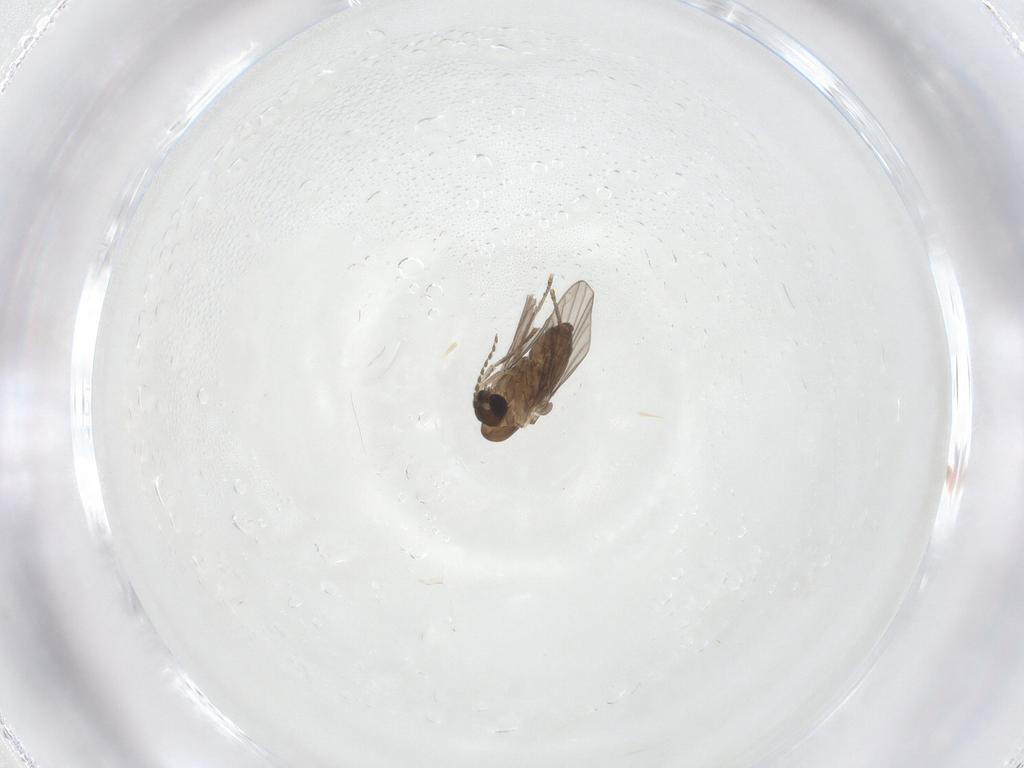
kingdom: Animalia
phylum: Arthropoda
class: Insecta
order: Diptera
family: Psychodidae
